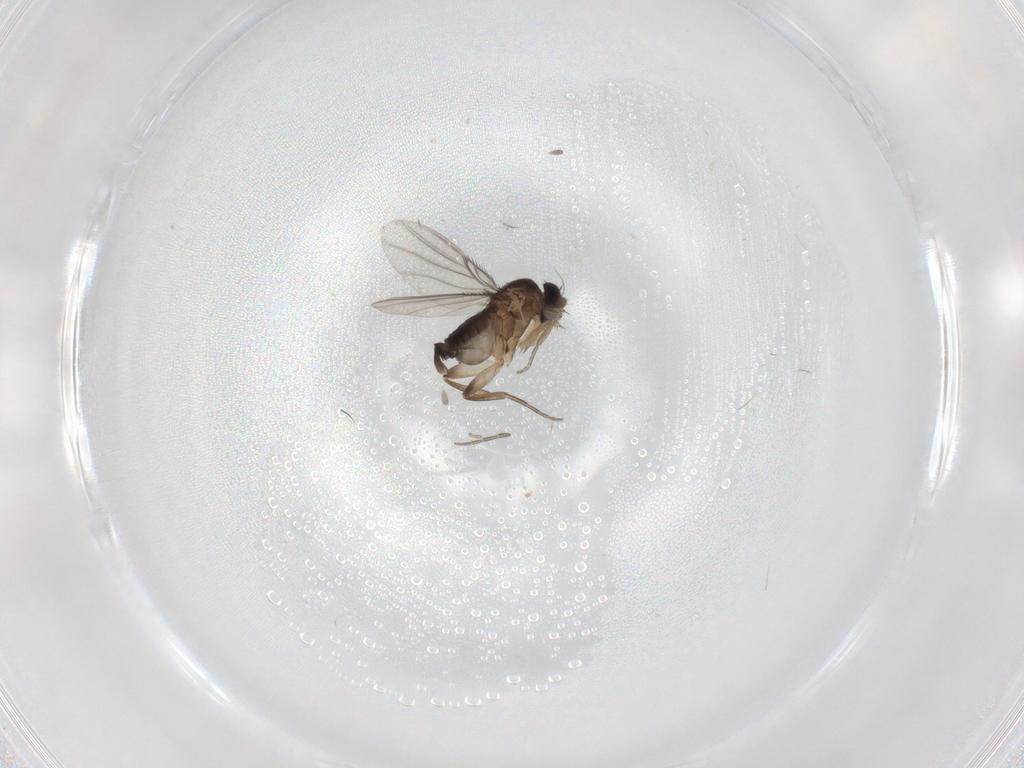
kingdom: Animalia
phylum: Arthropoda
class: Insecta
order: Diptera
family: Phoridae
